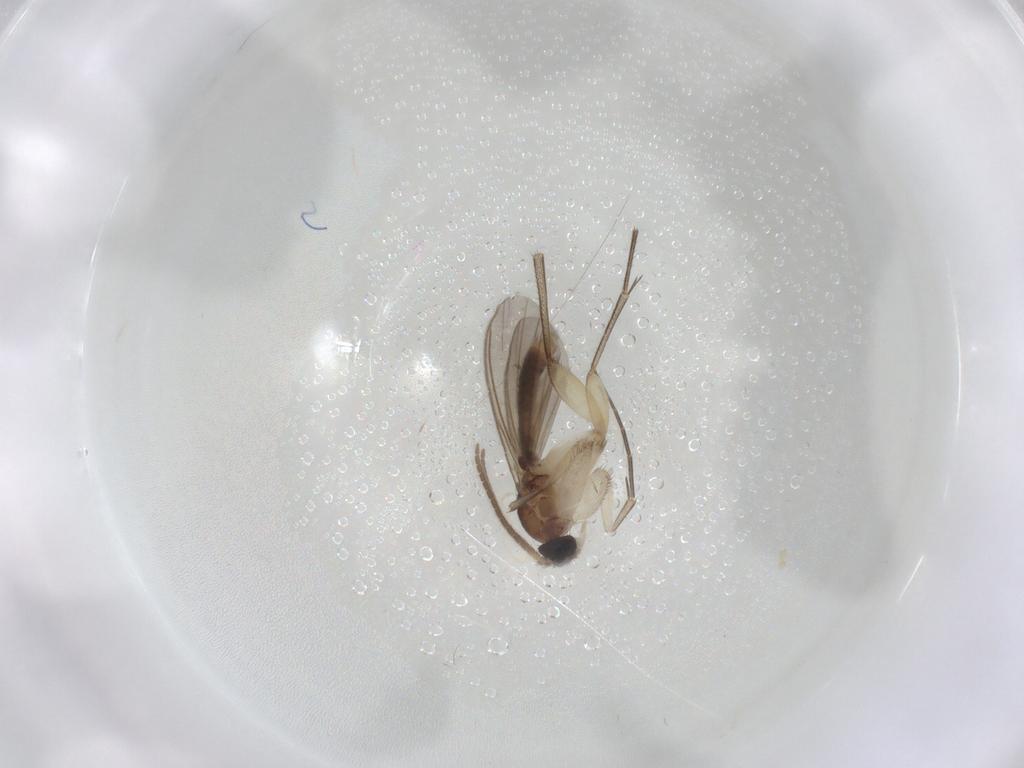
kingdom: Animalia
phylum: Arthropoda
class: Insecta
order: Diptera
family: Mycetophilidae
